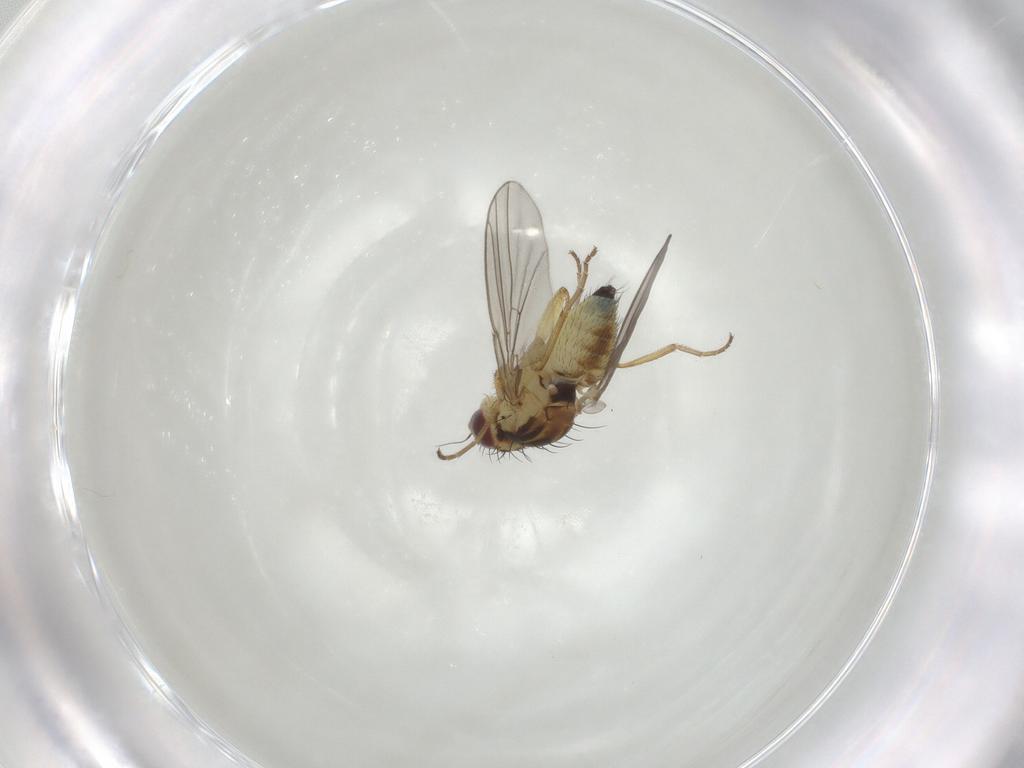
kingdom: Animalia
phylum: Arthropoda
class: Insecta
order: Diptera
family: Agromyzidae
